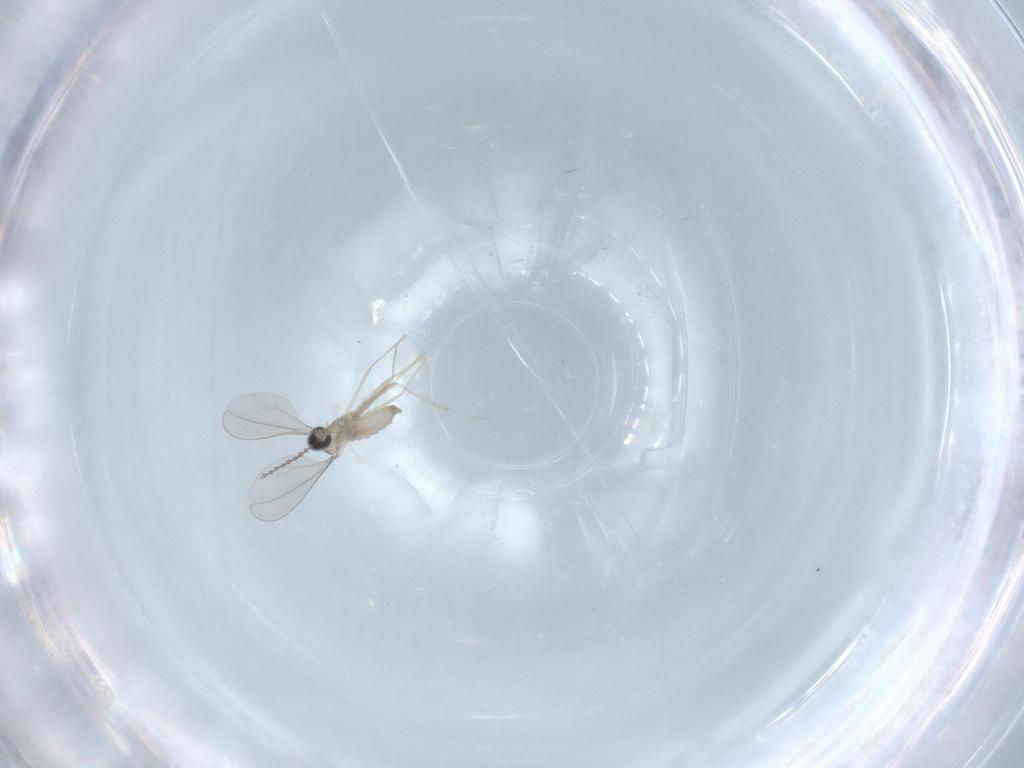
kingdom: Animalia
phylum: Arthropoda
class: Insecta
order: Diptera
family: Cecidomyiidae
